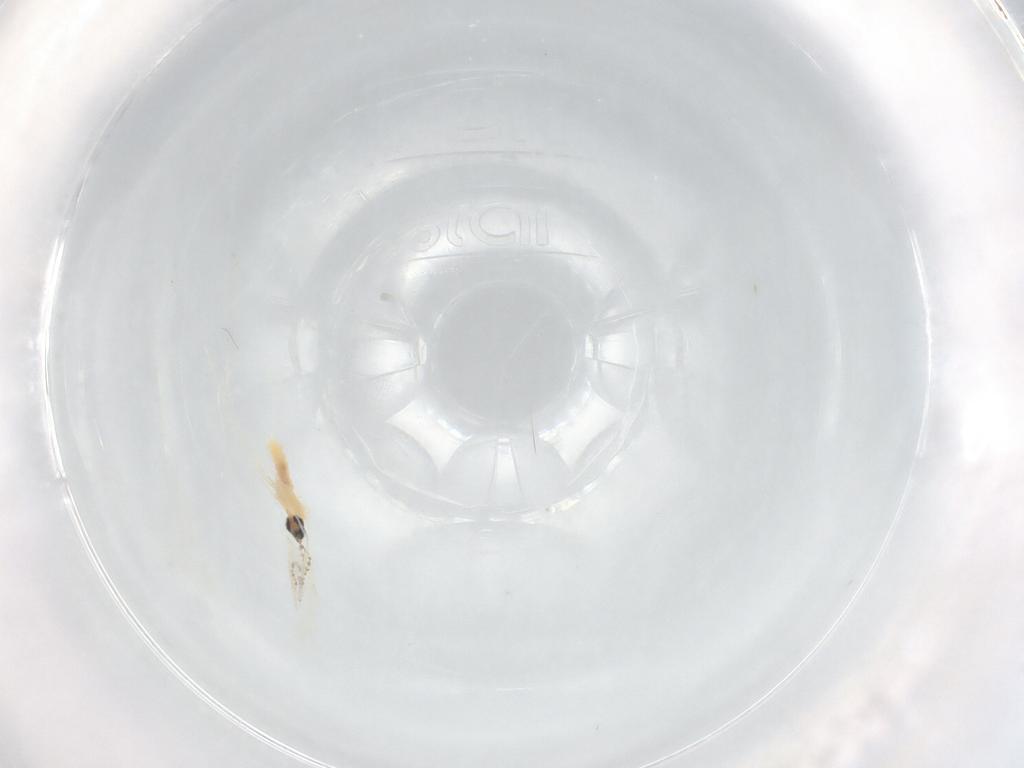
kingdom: Animalia
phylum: Arthropoda
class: Insecta
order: Diptera
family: Cecidomyiidae
